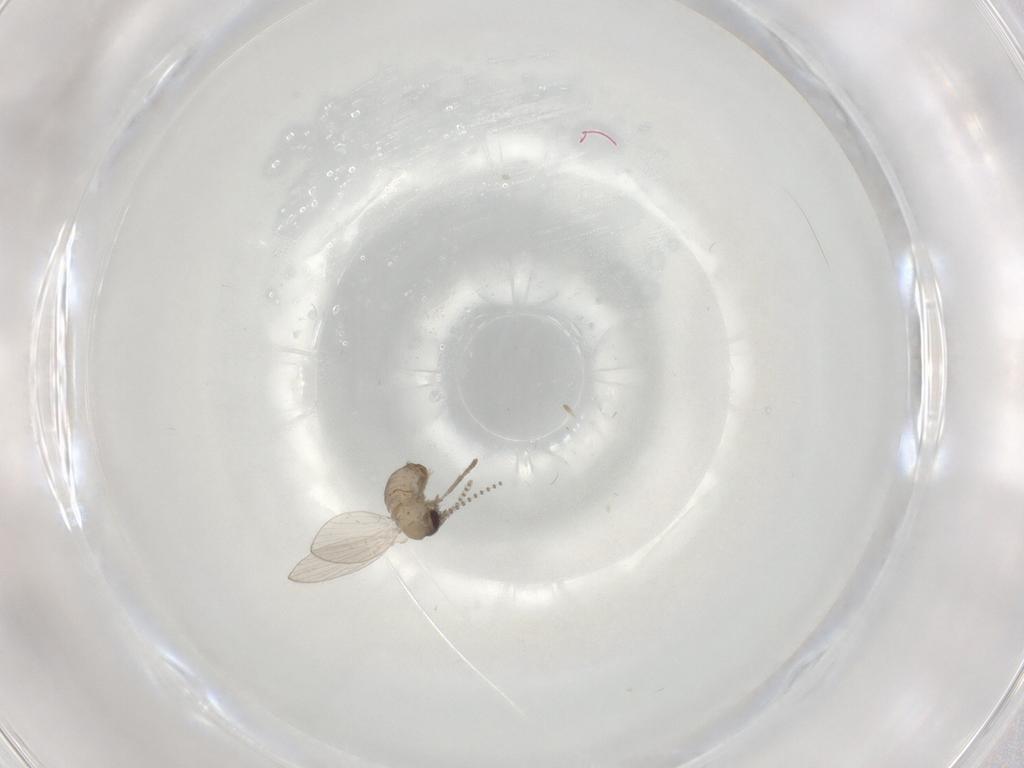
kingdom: Animalia
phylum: Arthropoda
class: Insecta
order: Diptera
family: Psychodidae
